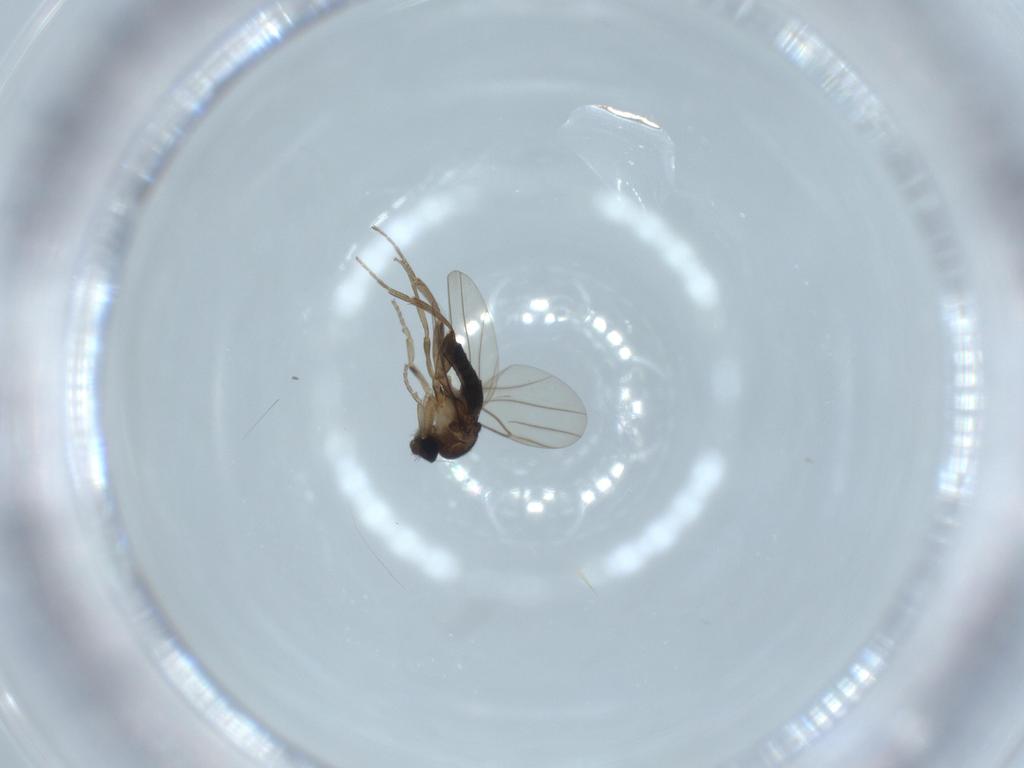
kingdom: Animalia
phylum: Arthropoda
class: Insecta
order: Diptera
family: Phoridae
